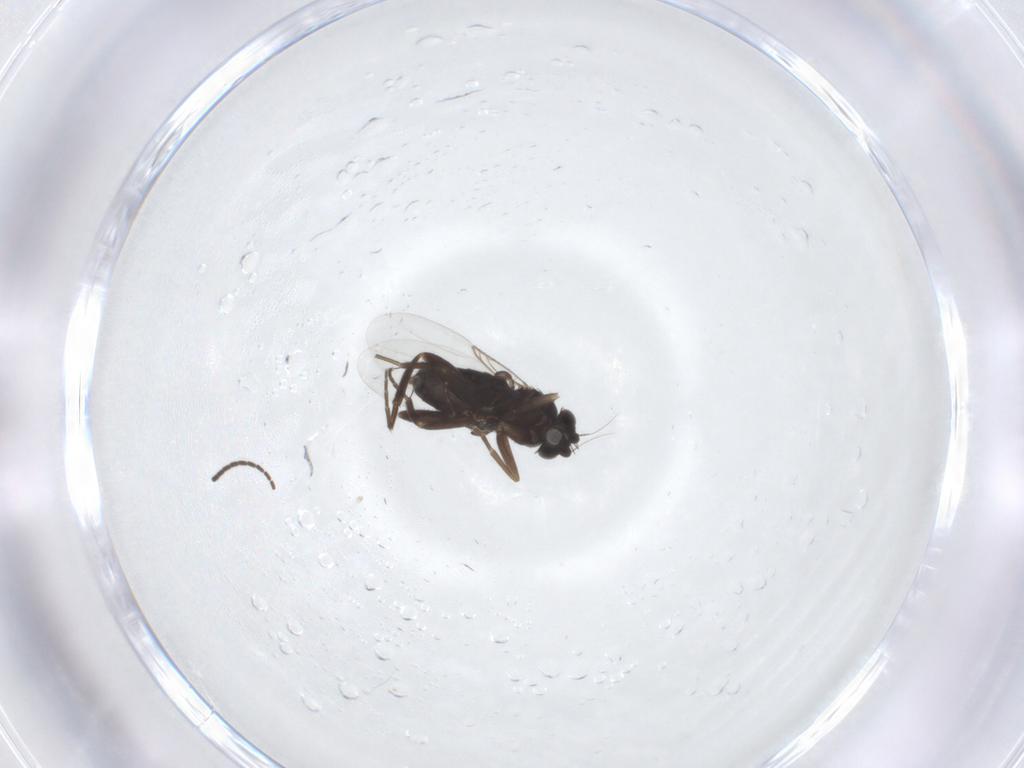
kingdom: Animalia
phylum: Arthropoda
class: Insecta
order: Diptera
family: Phoridae
